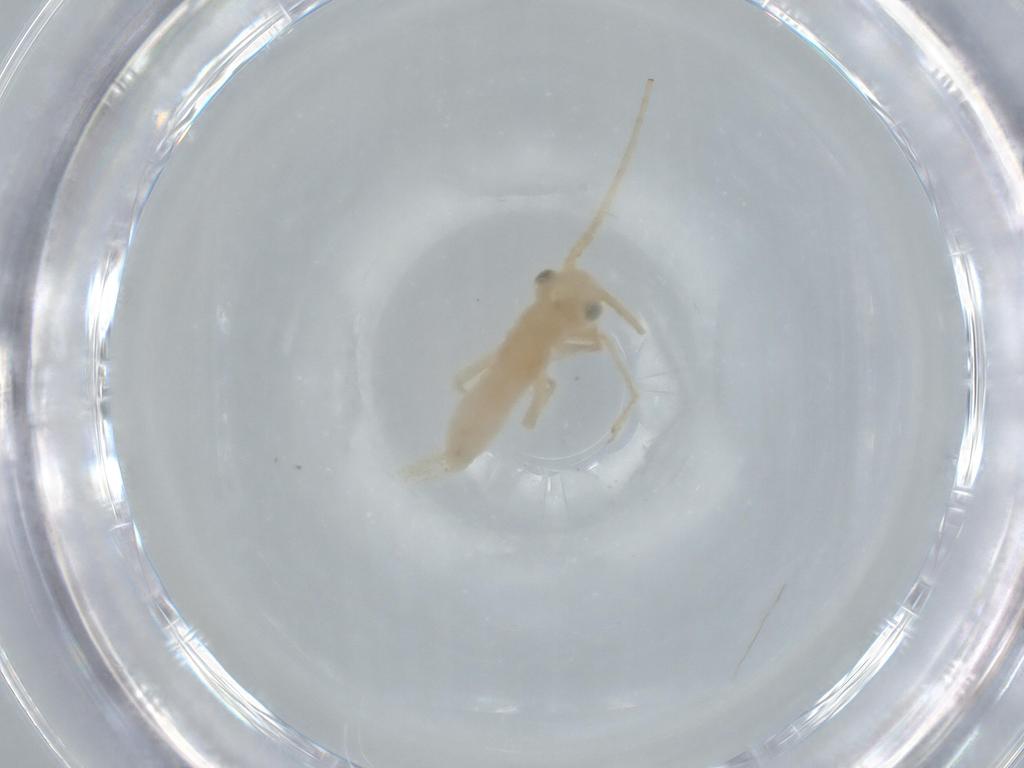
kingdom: Animalia
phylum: Arthropoda
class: Insecta
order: Orthoptera
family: Trigonidiidae
